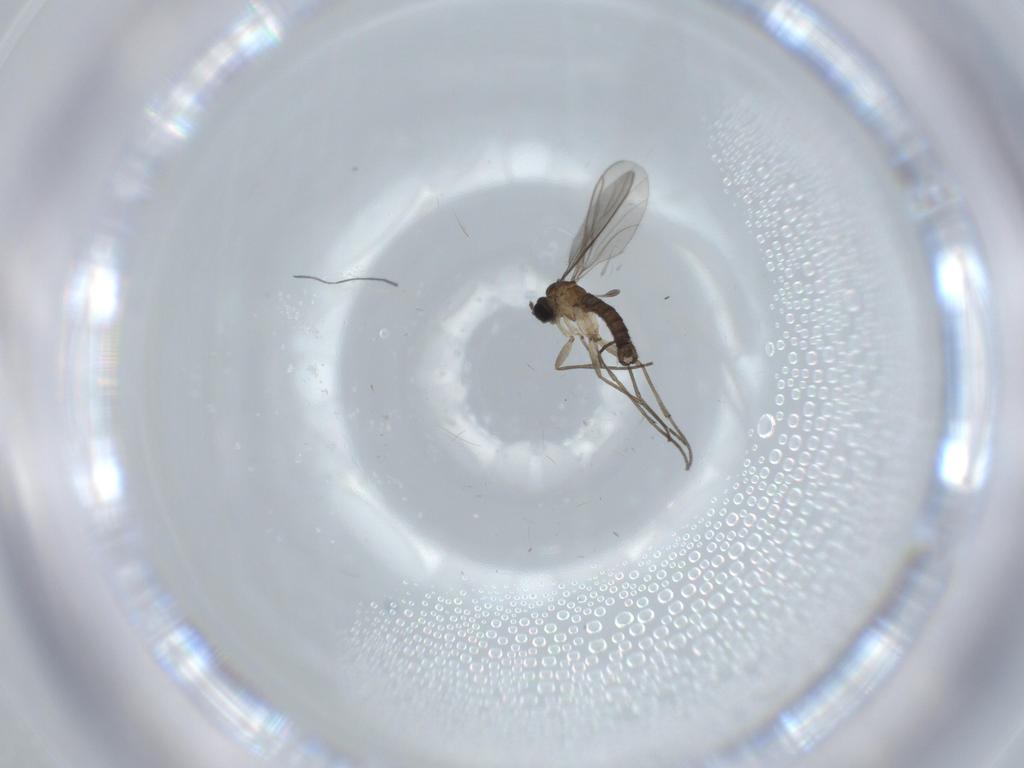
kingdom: Animalia
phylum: Arthropoda
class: Insecta
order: Diptera
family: Sciaridae
